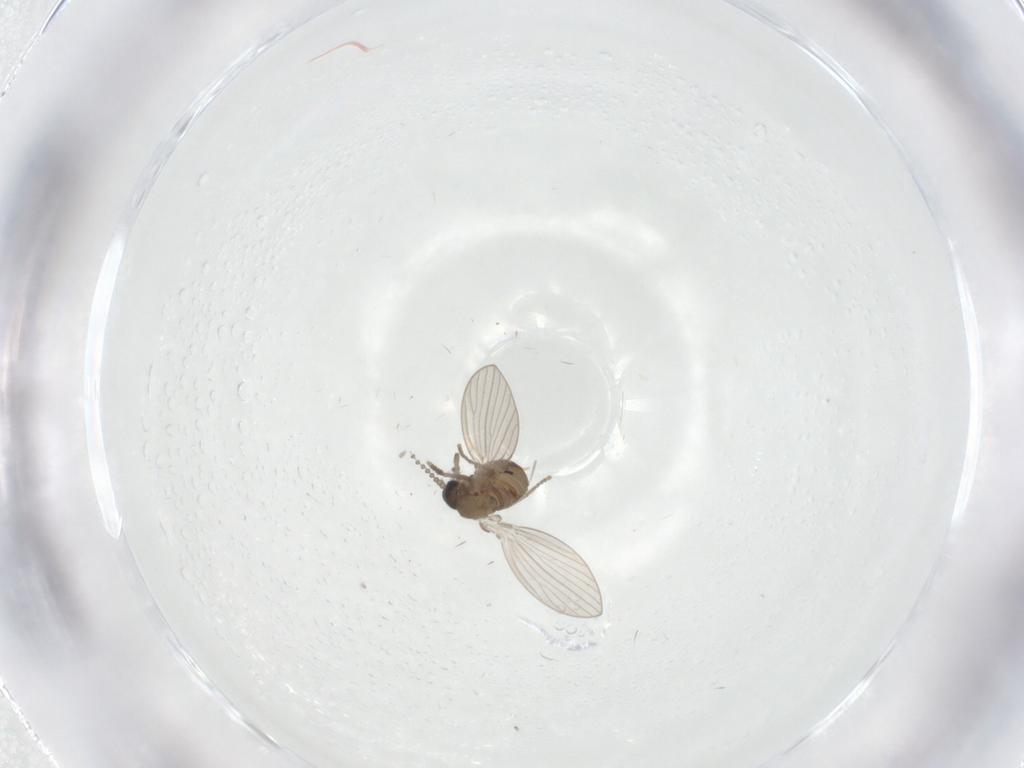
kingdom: Animalia
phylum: Arthropoda
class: Insecta
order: Diptera
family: Psychodidae
